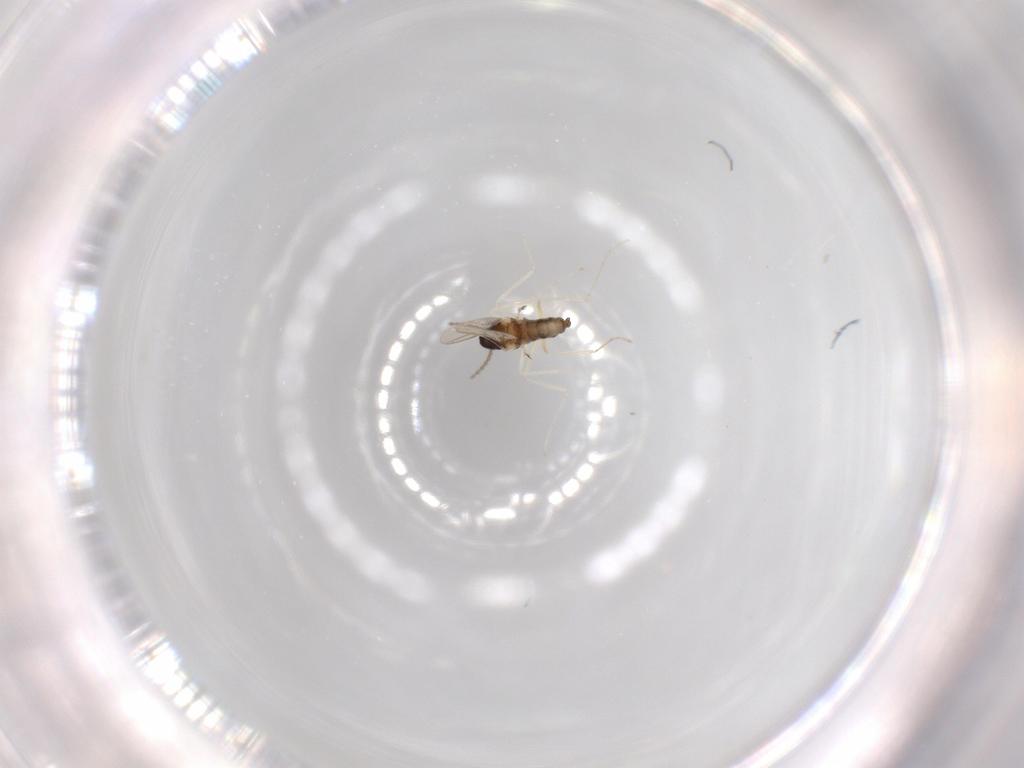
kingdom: Animalia
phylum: Arthropoda
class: Insecta
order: Diptera
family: Cecidomyiidae
